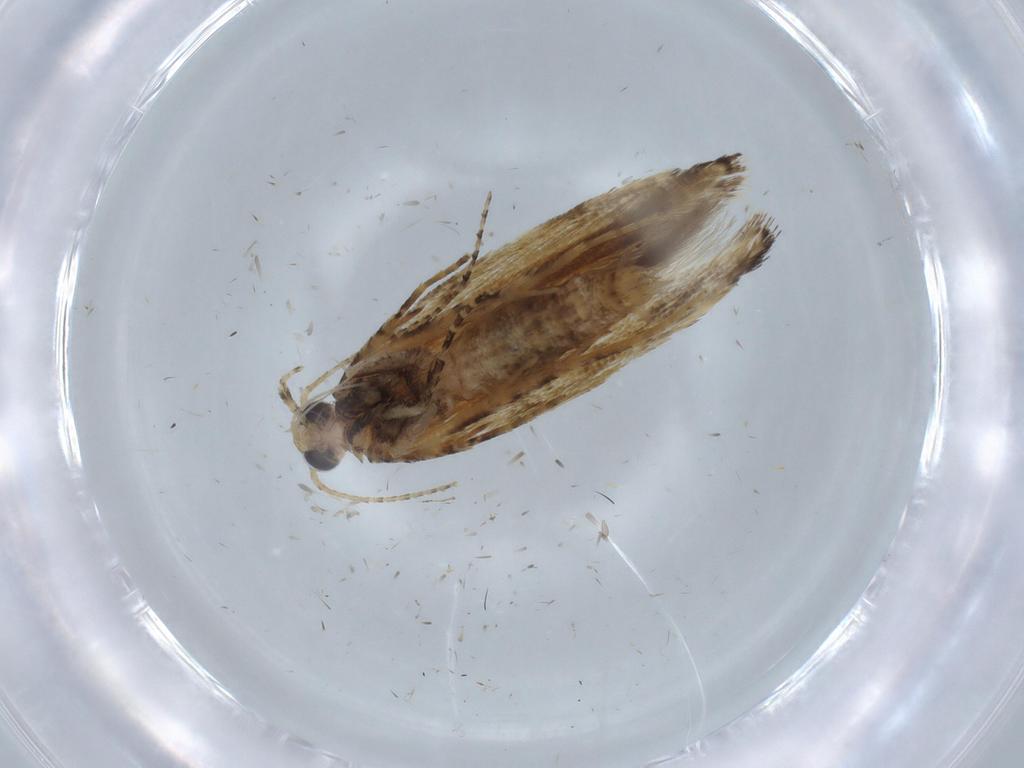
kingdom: Animalia
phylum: Arthropoda
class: Insecta
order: Lepidoptera
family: Gelechiidae
